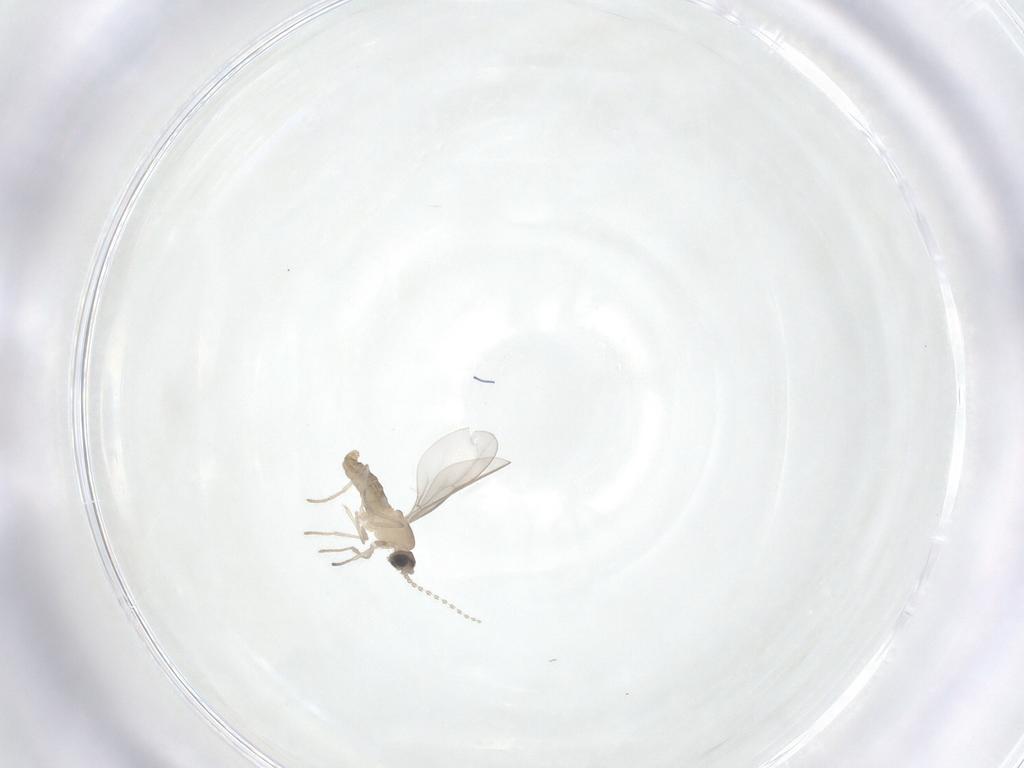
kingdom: Animalia
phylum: Arthropoda
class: Insecta
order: Diptera
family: Cecidomyiidae
